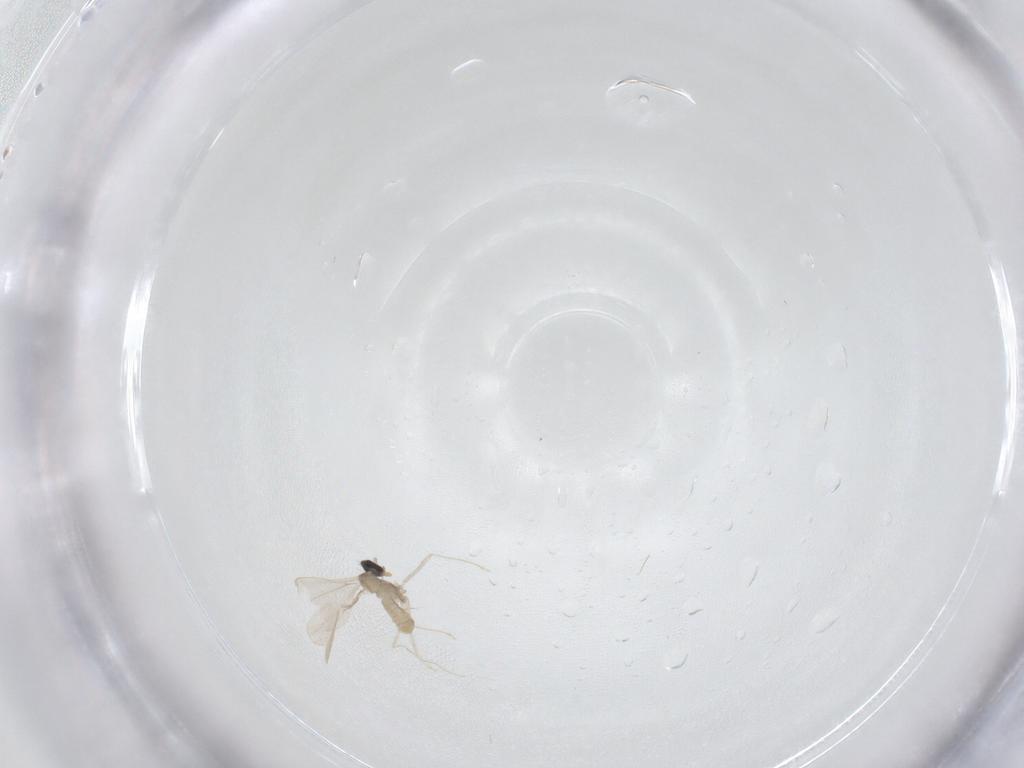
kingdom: Animalia
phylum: Arthropoda
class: Insecta
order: Diptera
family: Cecidomyiidae
